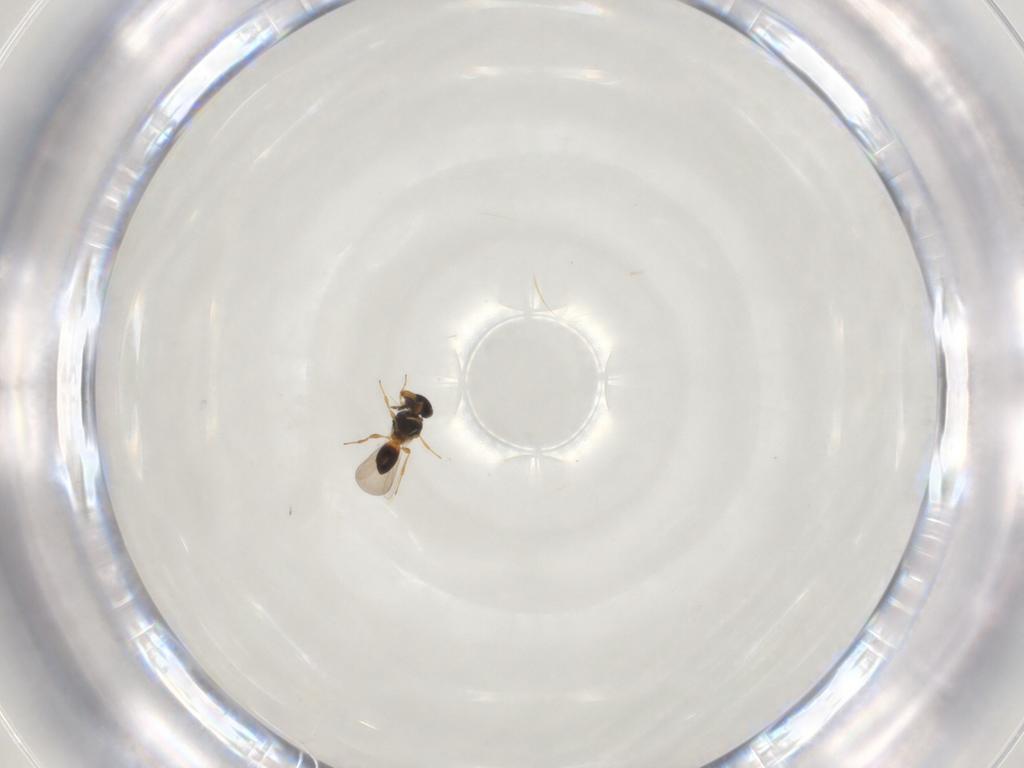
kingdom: Animalia
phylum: Arthropoda
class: Insecta
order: Hymenoptera
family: Platygastridae
